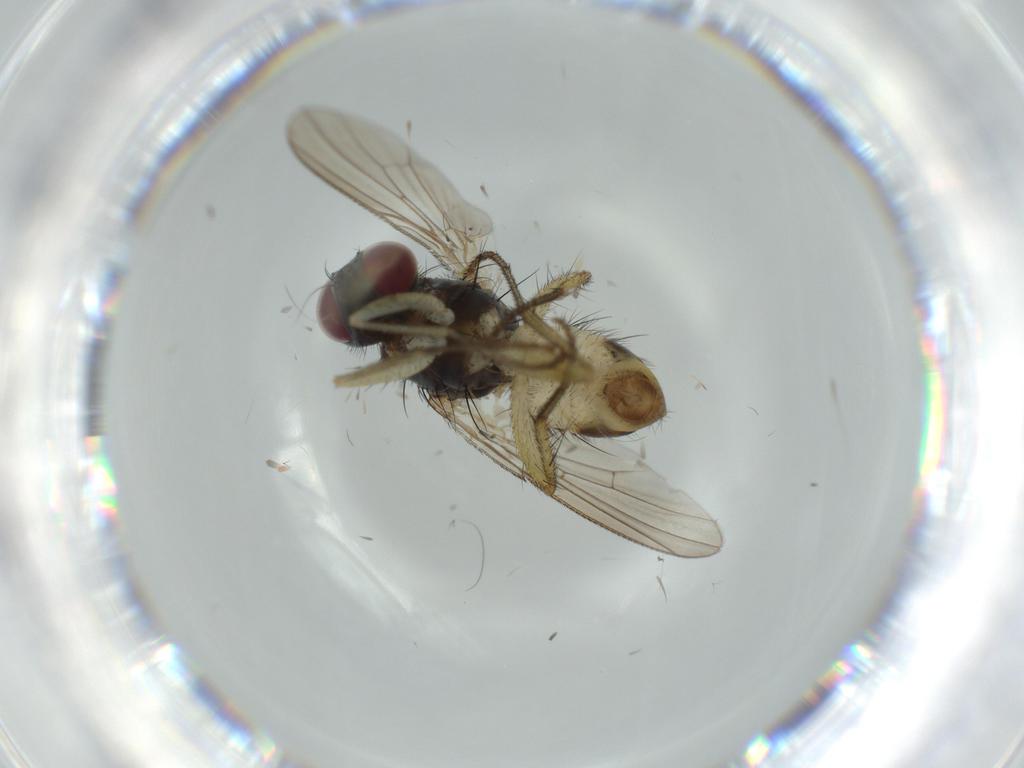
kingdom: Animalia
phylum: Arthropoda
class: Insecta
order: Diptera
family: Muscidae
